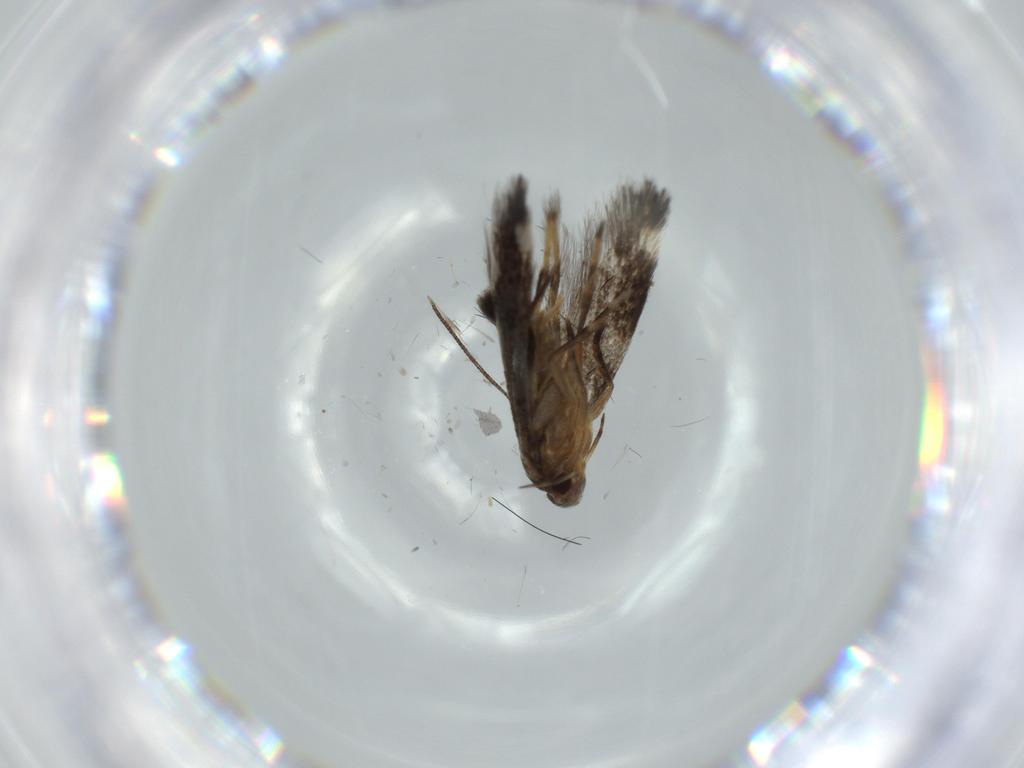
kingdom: Animalia
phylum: Arthropoda
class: Insecta
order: Lepidoptera
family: Cosmopterigidae
